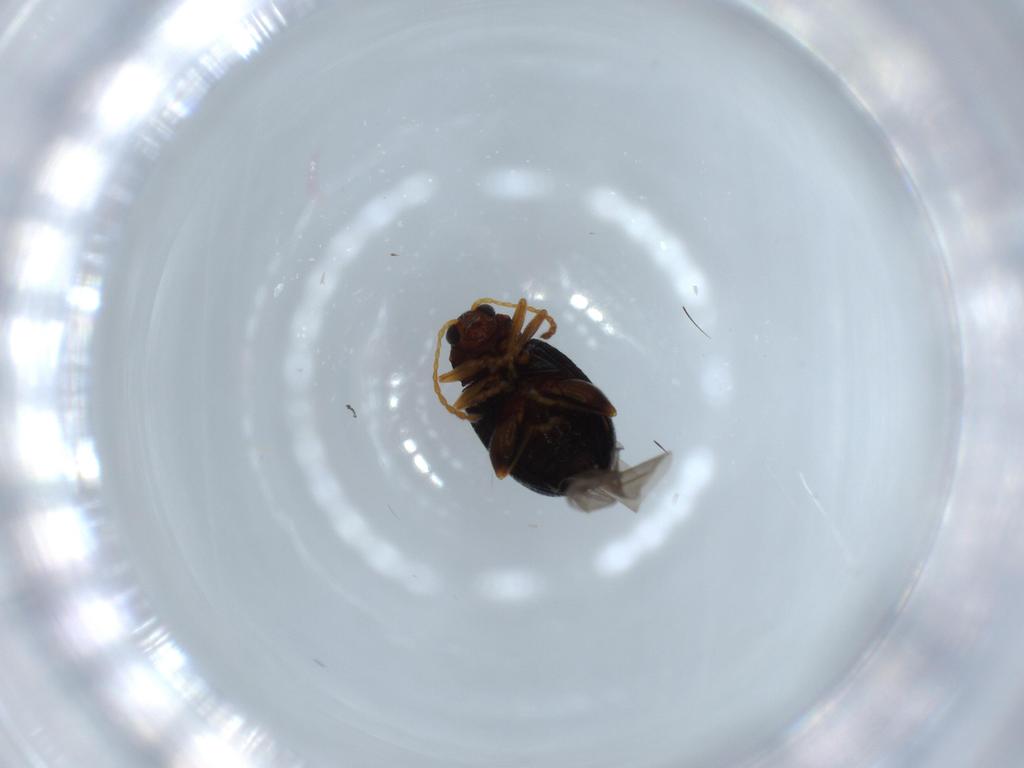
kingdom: Animalia
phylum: Arthropoda
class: Insecta
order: Coleoptera
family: Chrysomelidae
